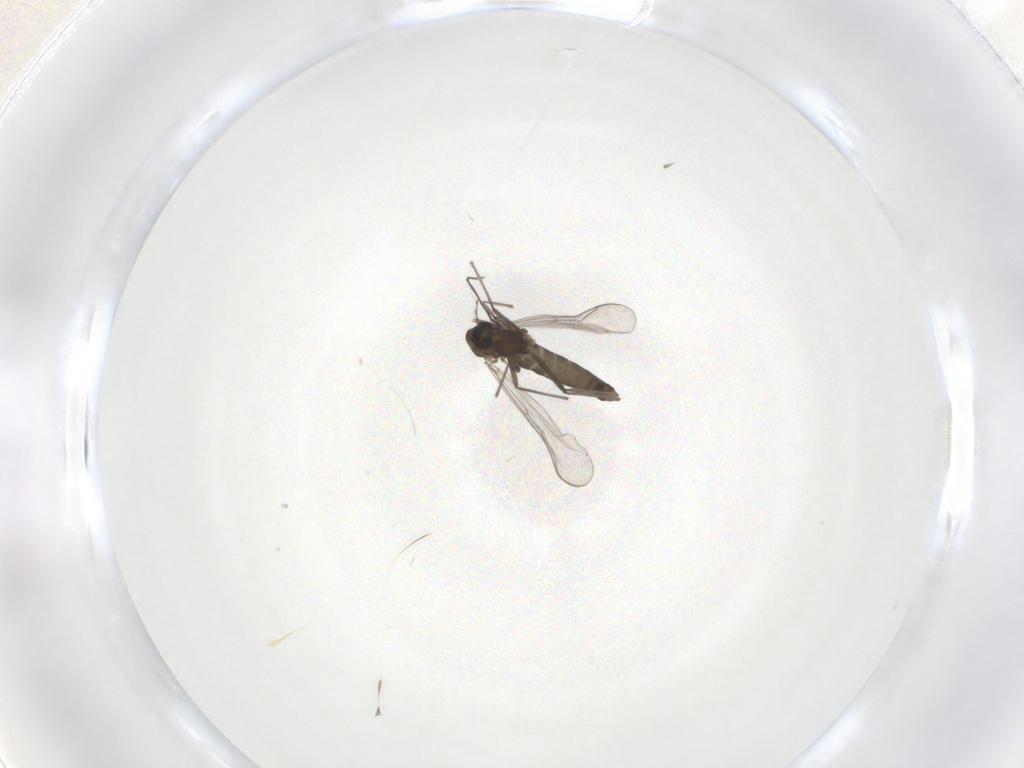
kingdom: Animalia
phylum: Arthropoda
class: Insecta
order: Diptera
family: Chironomidae
